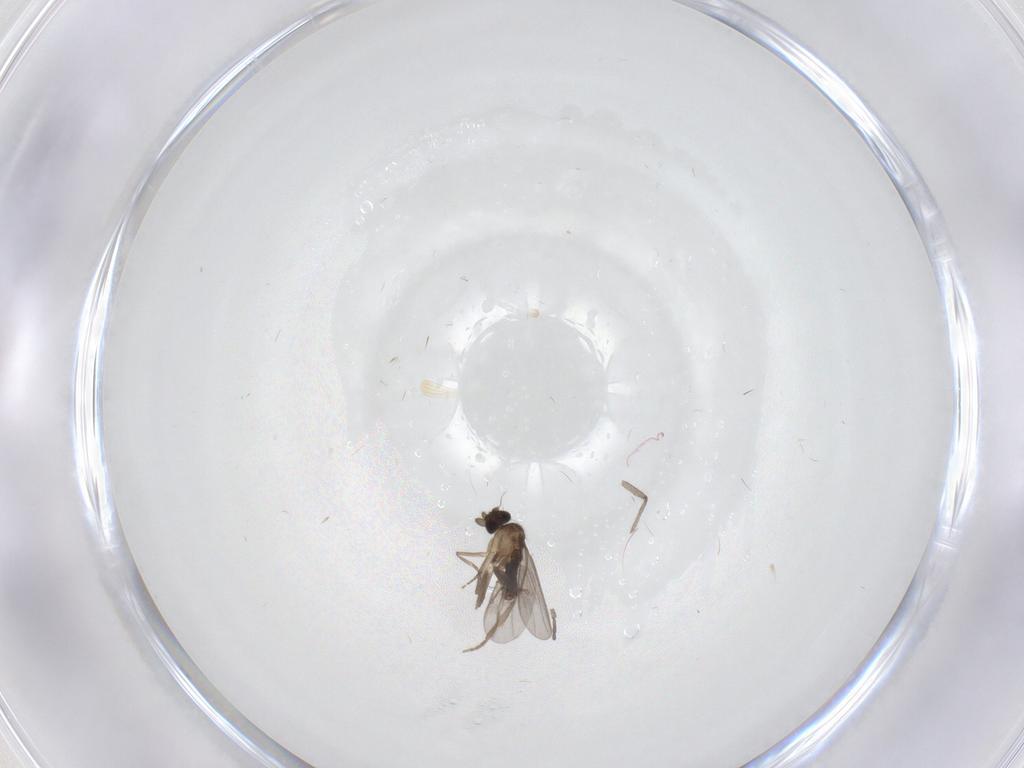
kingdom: Animalia
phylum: Arthropoda
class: Insecta
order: Diptera
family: Sciaridae
